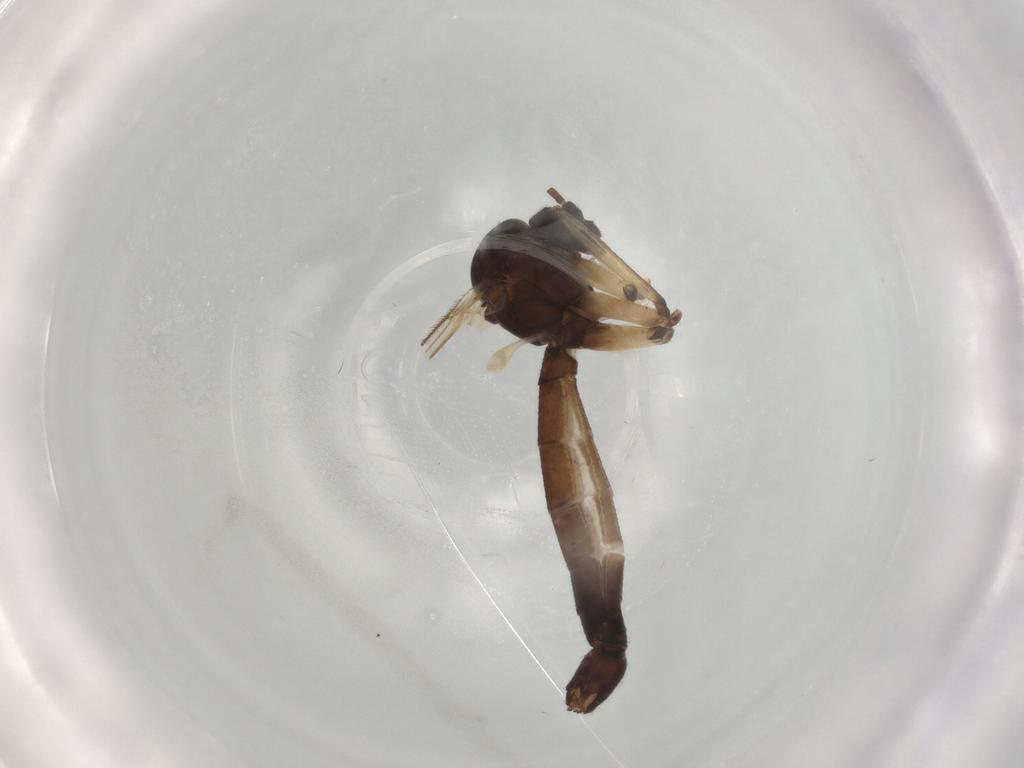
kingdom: Animalia
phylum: Arthropoda
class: Insecta
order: Diptera
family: Mycetophilidae
